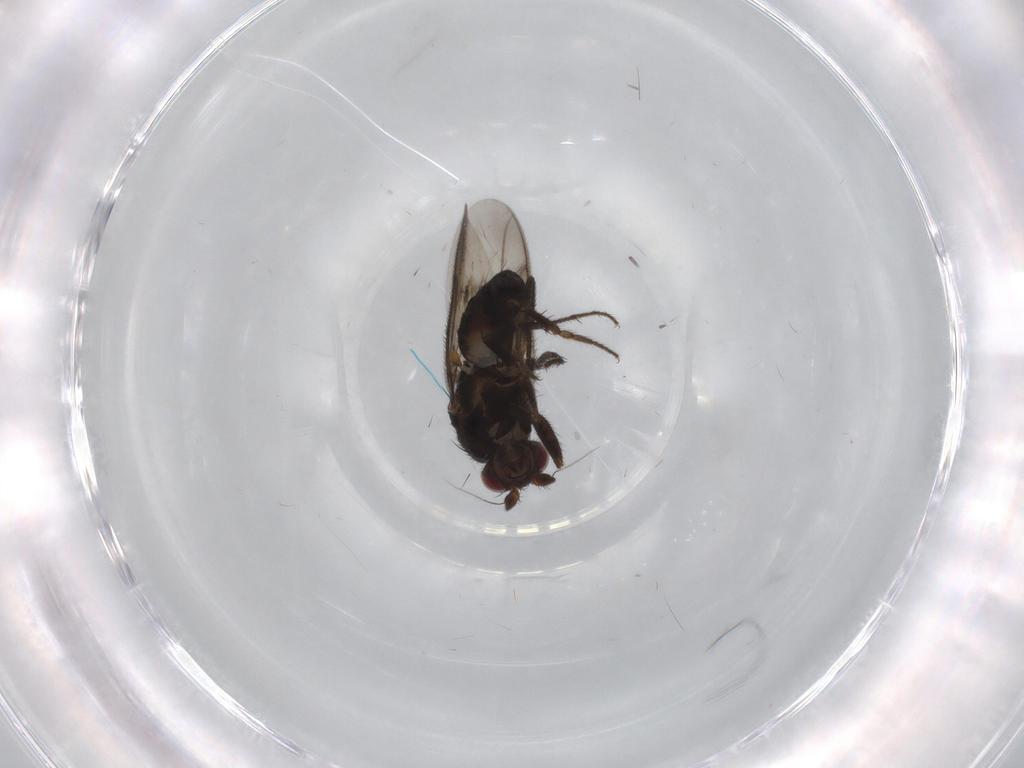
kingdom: Animalia
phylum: Arthropoda
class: Insecta
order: Diptera
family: Sphaeroceridae
